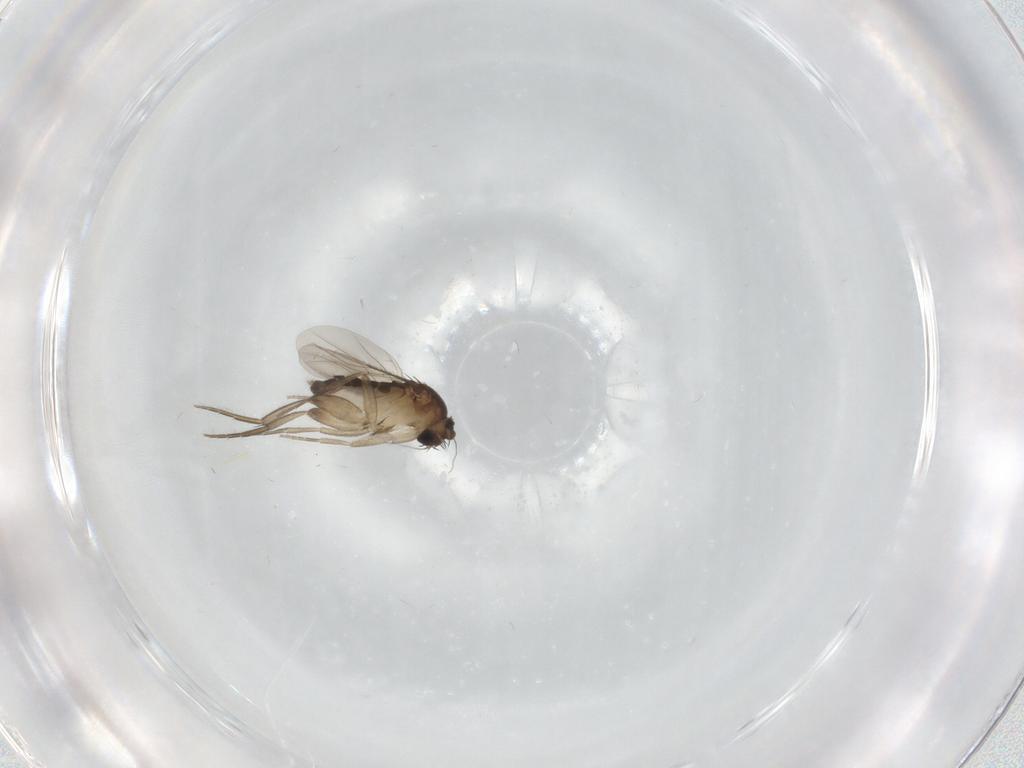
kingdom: Animalia
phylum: Arthropoda
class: Insecta
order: Diptera
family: Phoridae
